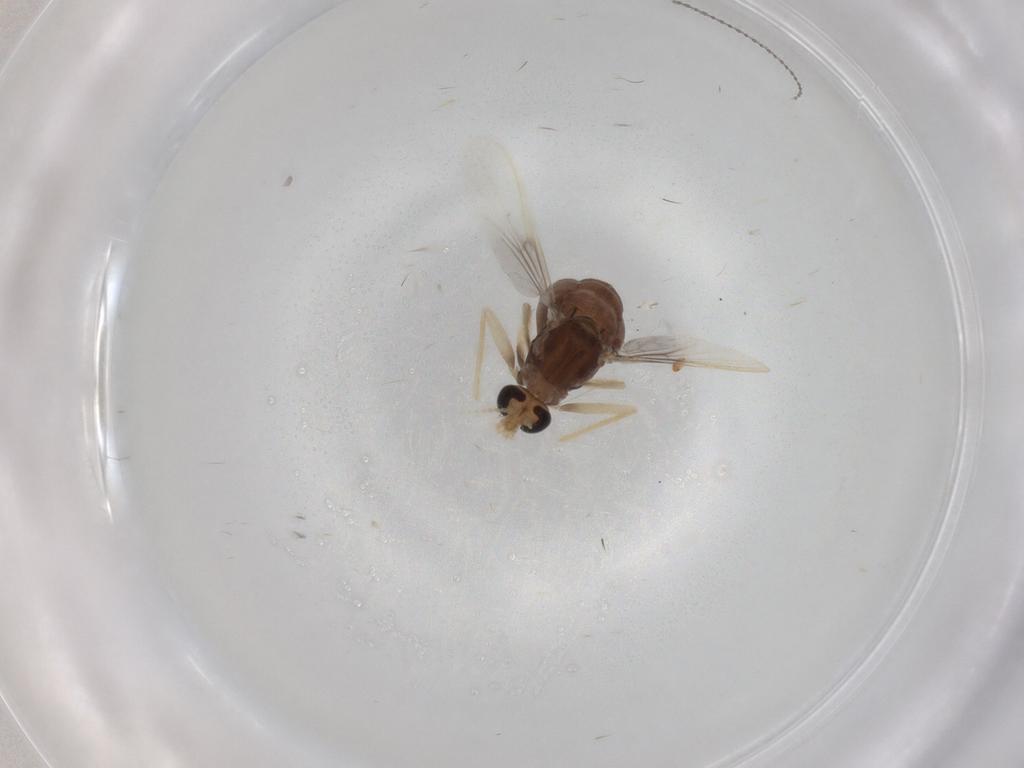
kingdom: Animalia
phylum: Arthropoda
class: Insecta
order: Diptera
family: Chironomidae
